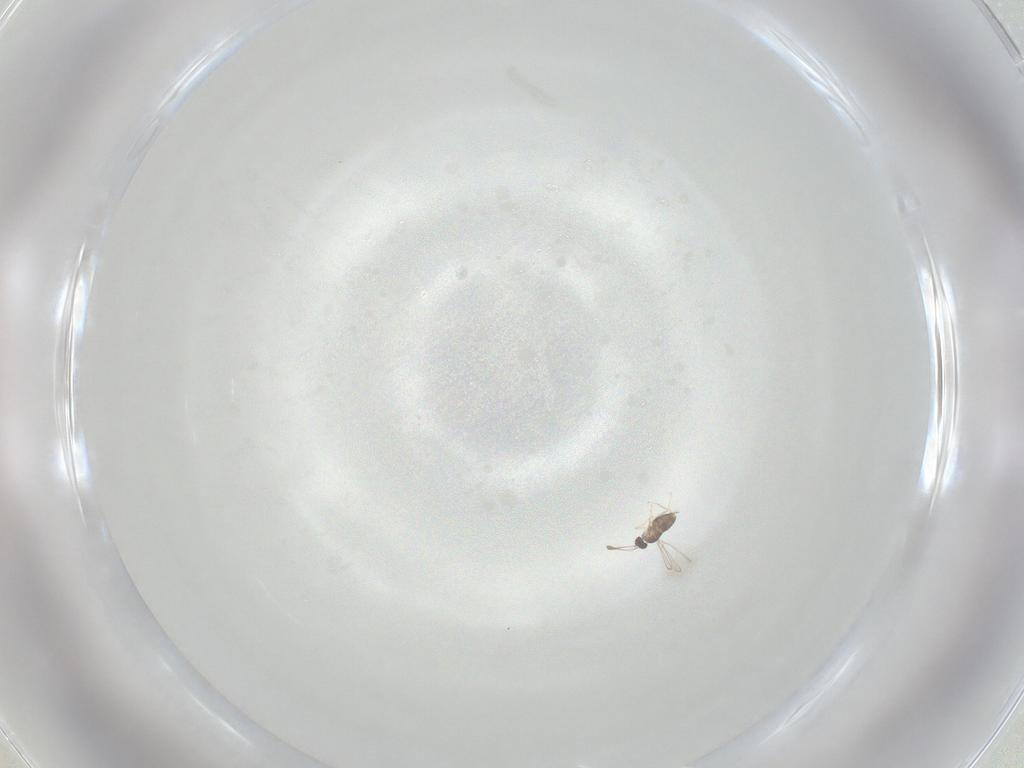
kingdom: Animalia
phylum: Arthropoda
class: Insecta
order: Hymenoptera
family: Mymaridae
